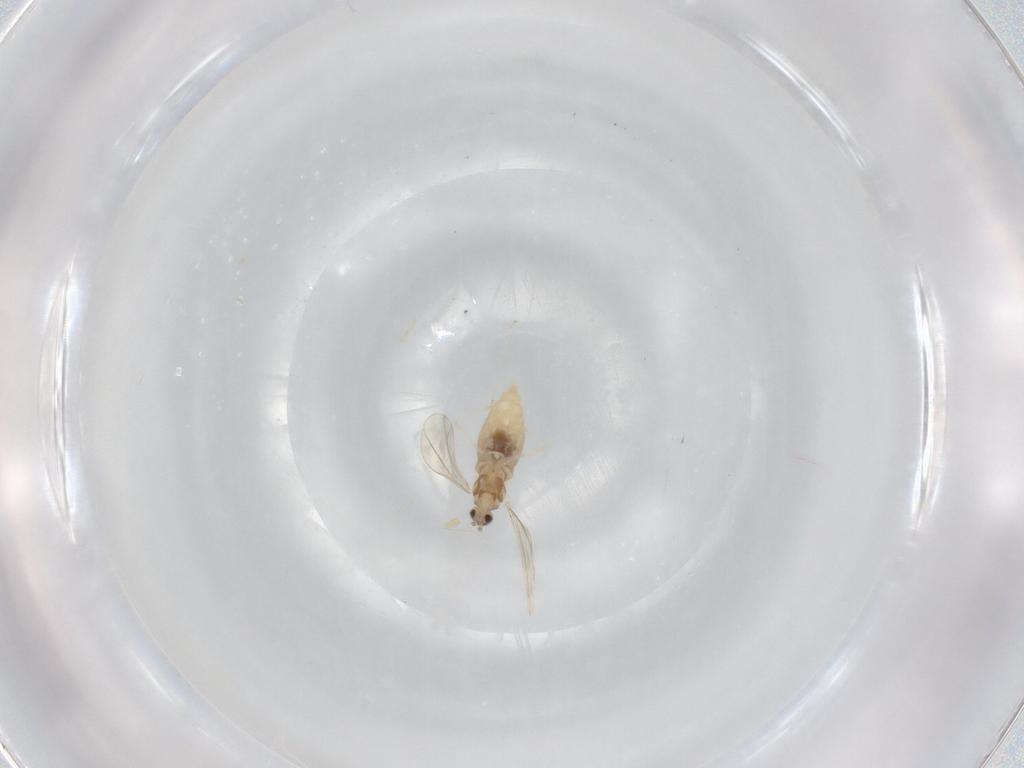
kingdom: Animalia
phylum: Arthropoda
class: Insecta
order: Diptera
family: Cecidomyiidae
